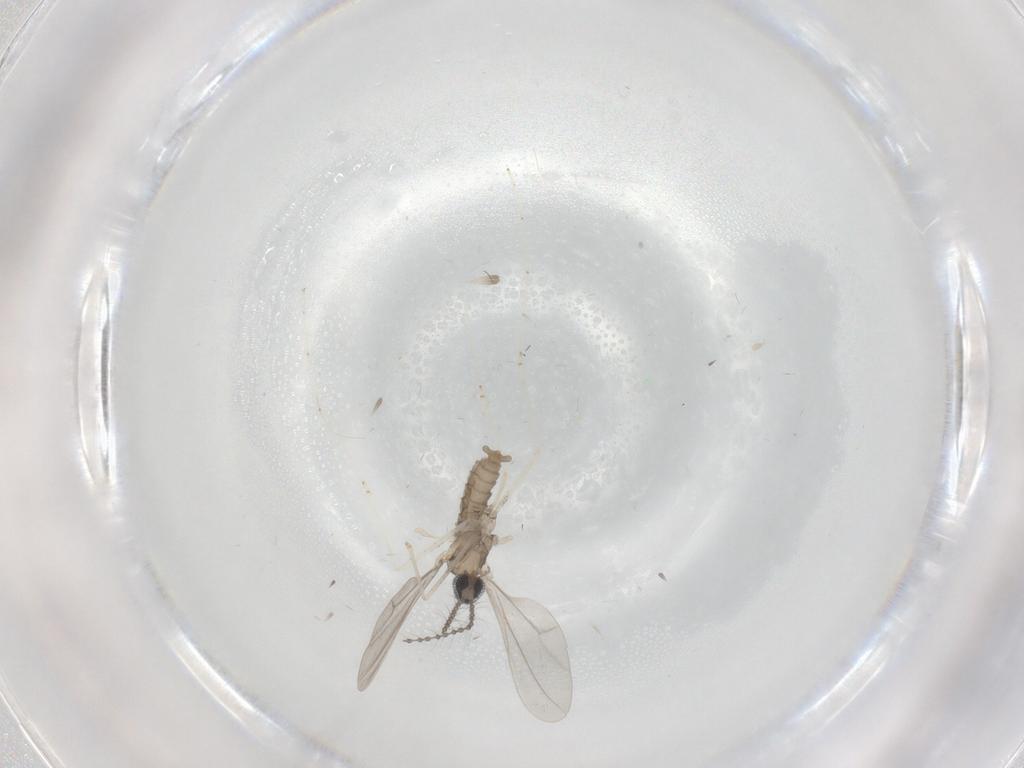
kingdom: Animalia
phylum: Arthropoda
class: Insecta
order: Diptera
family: Cecidomyiidae
